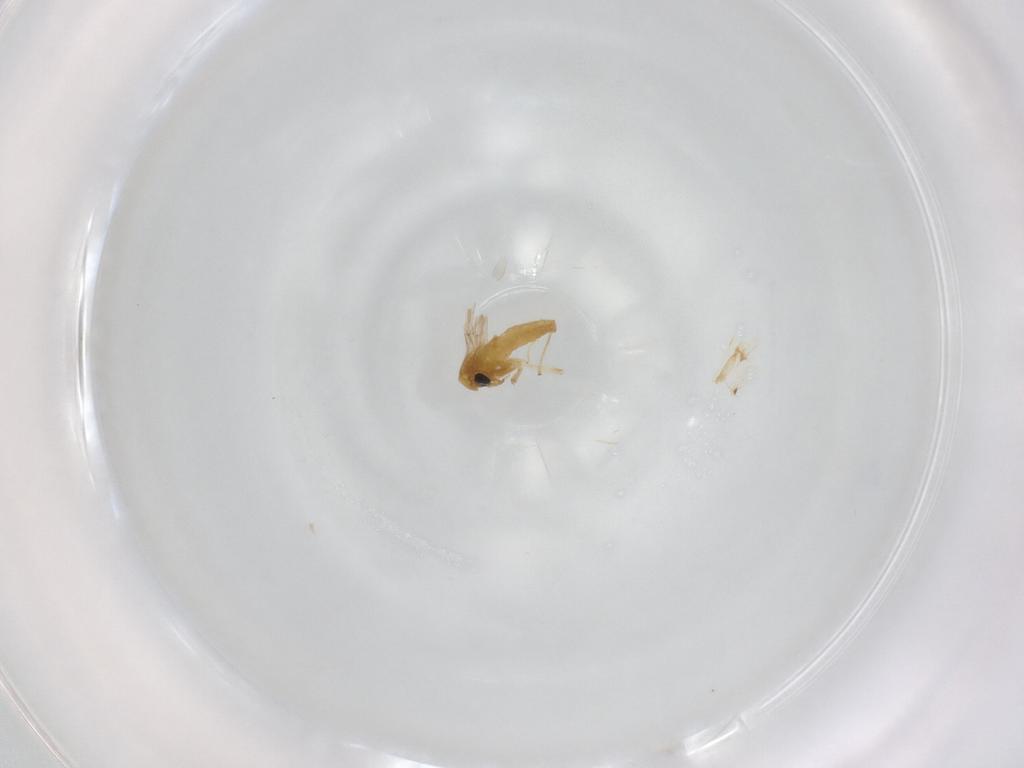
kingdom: Animalia
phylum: Arthropoda
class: Insecta
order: Diptera
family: Chironomidae
